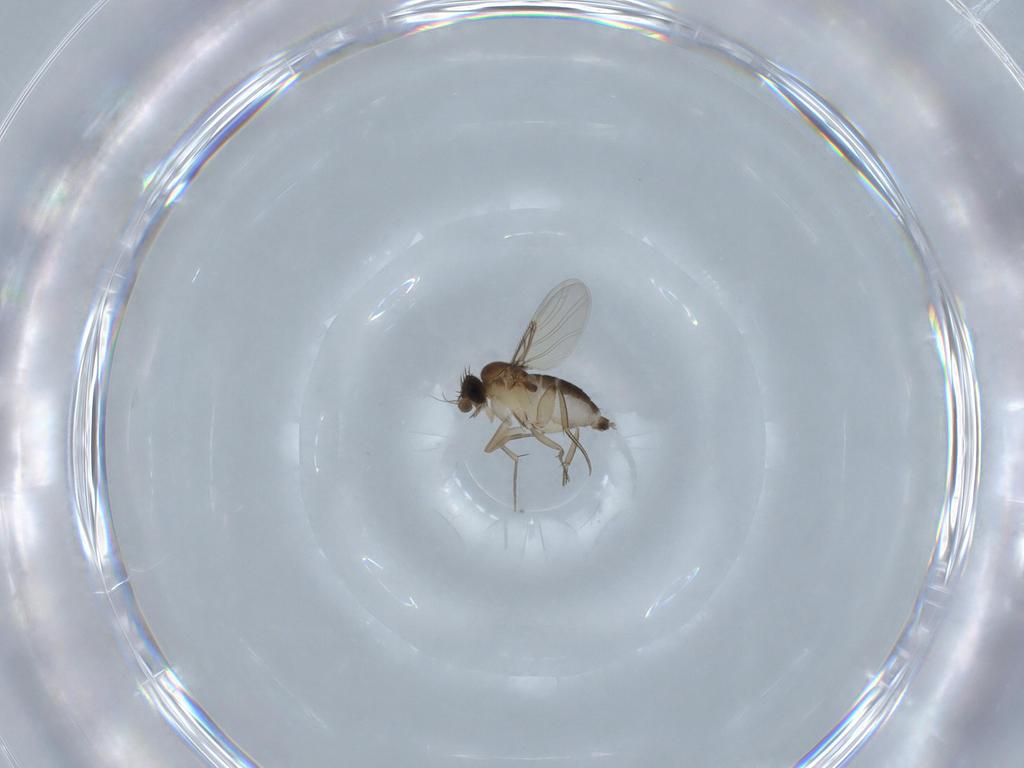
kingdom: Animalia
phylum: Arthropoda
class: Insecta
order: Diptera
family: Phoridae
